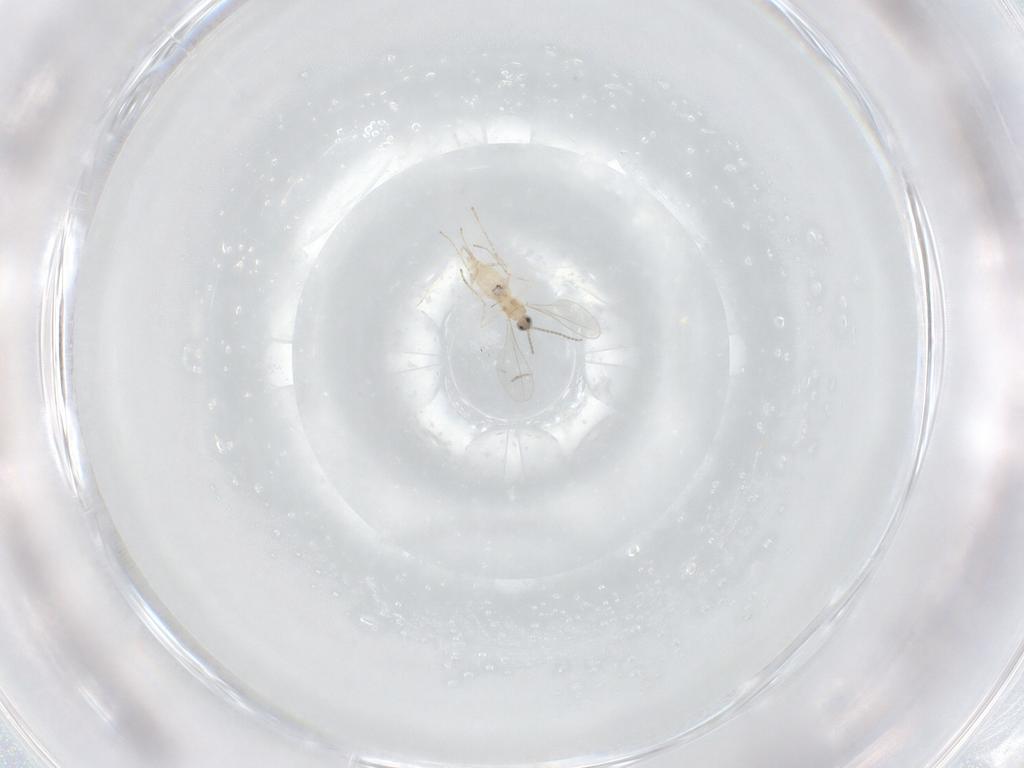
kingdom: Animalia
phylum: Arthropoda
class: Insecta
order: Diptera
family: Cecidomyiidae
